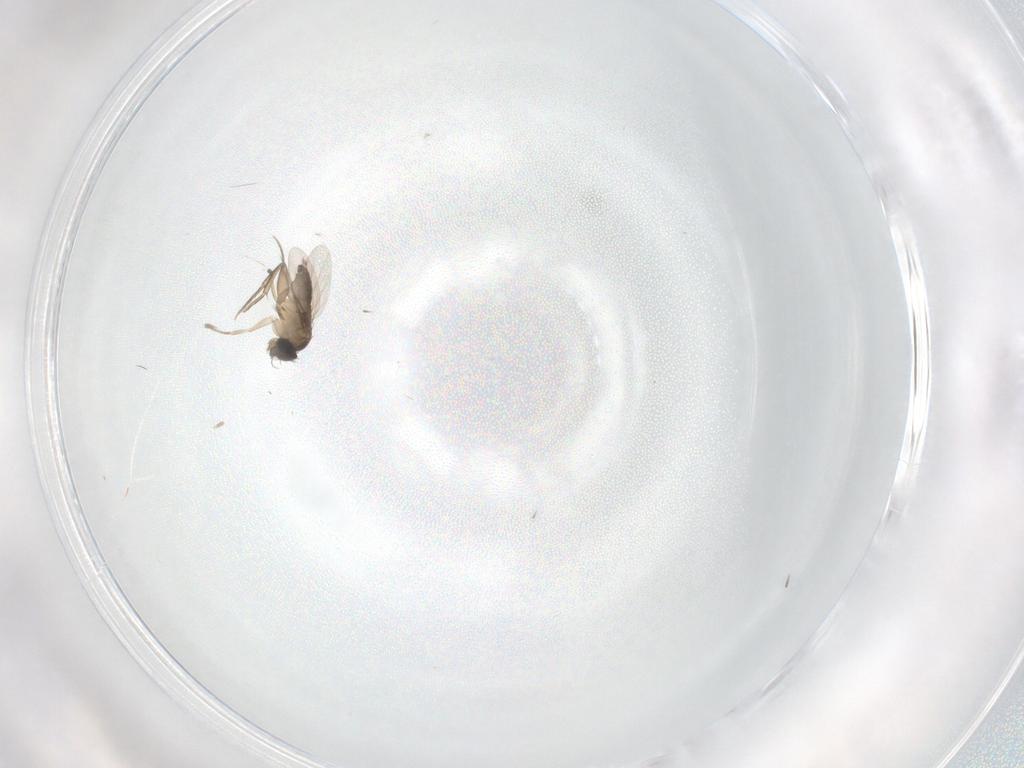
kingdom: Animalia
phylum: Arthropoda
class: Insecta
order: Diptera
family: Phoridae
